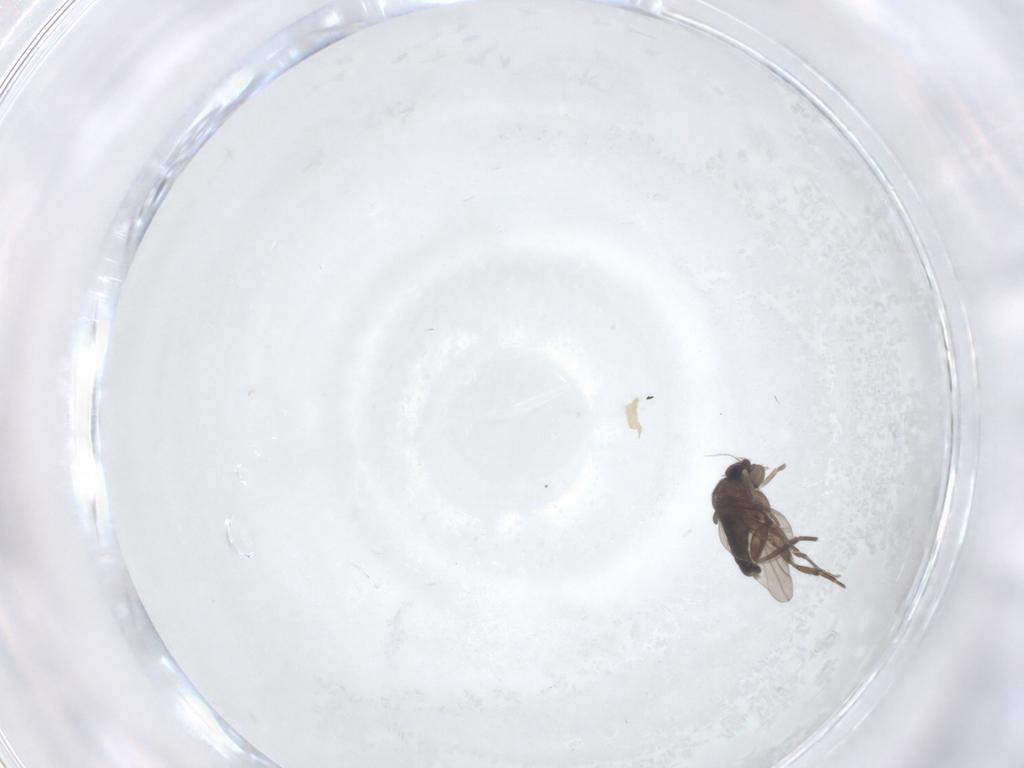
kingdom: Animalia
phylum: Arthropoda
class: Insecta
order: Diptera
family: Phoridae
